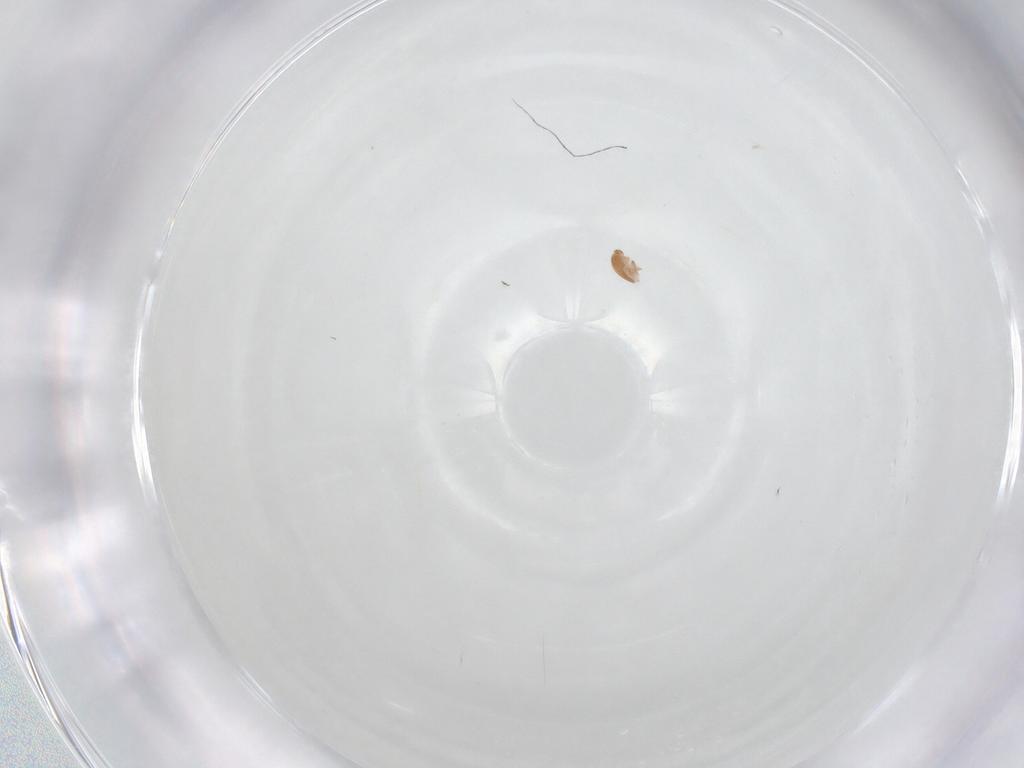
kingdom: Animalia
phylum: Arthropoda
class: Arachnida
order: Mesostigmata
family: Trematuridae
